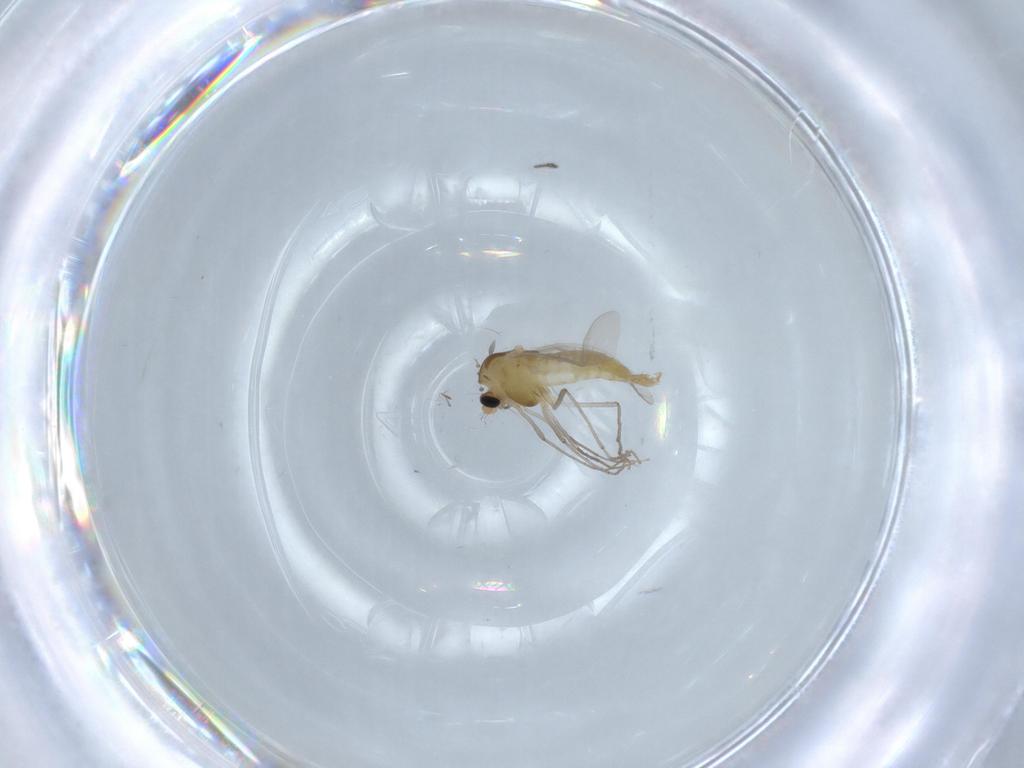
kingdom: Animalia
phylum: Arthropoda
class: Insecta
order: Diptera
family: Chironomidae
